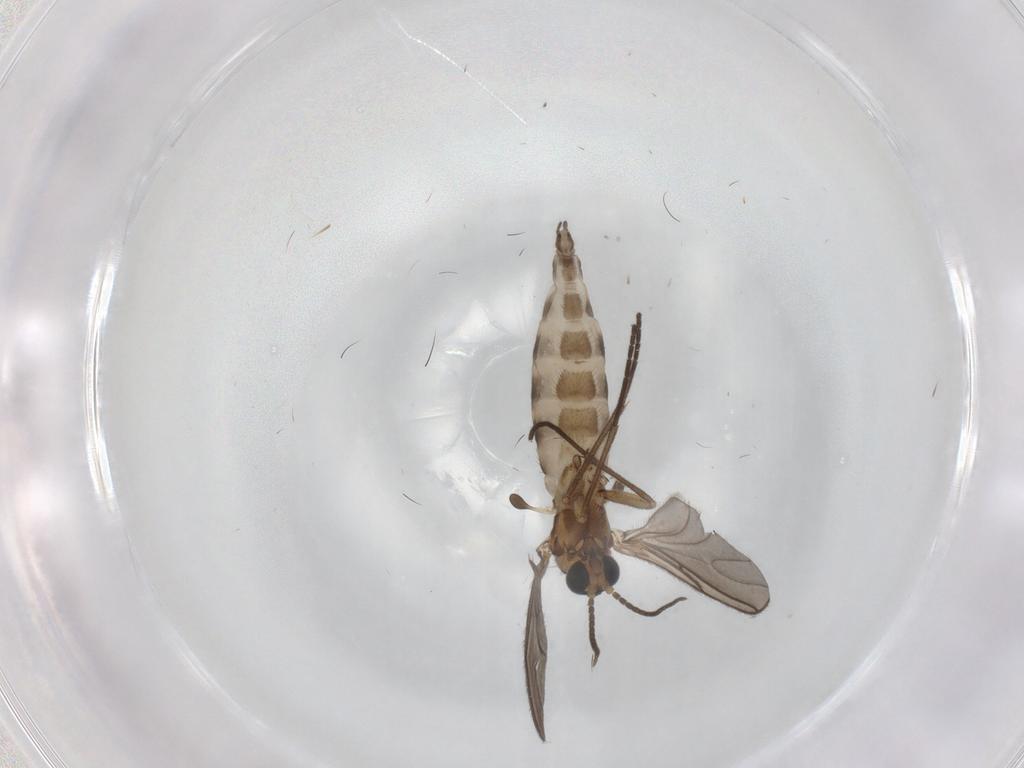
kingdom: Animalia
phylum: Arthropoda
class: Insecta
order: Diptera
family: Sciaridae
